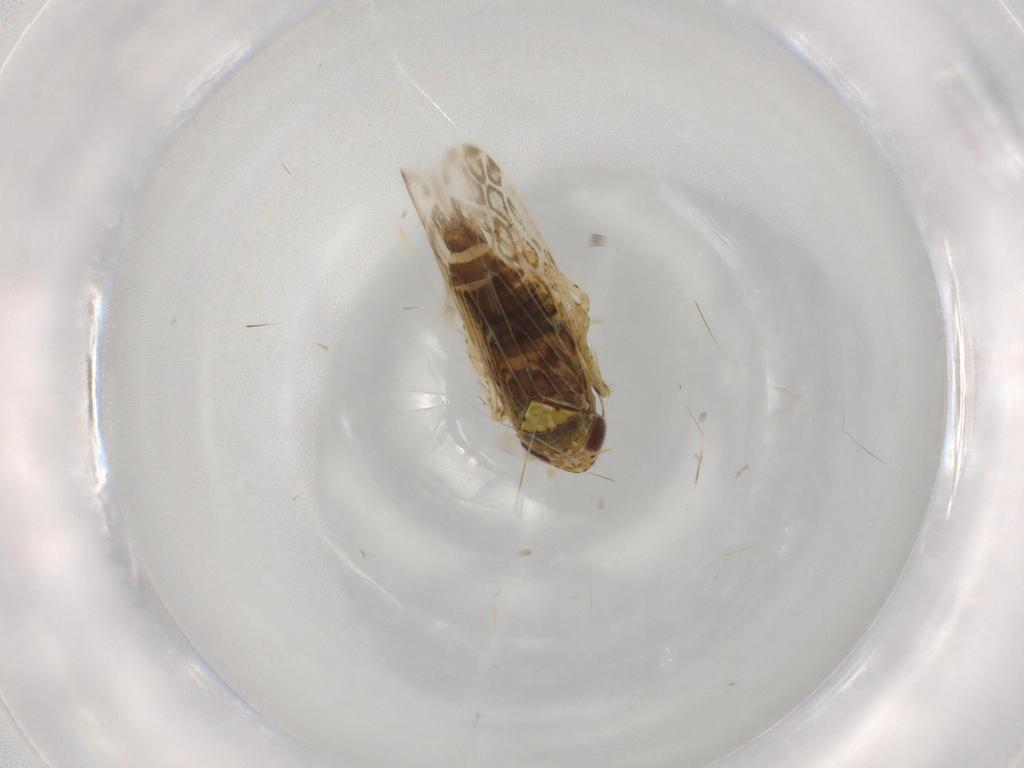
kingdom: Animalia
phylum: Arthropoda
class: Insecta
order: Hemiptera
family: Cicadellidae
